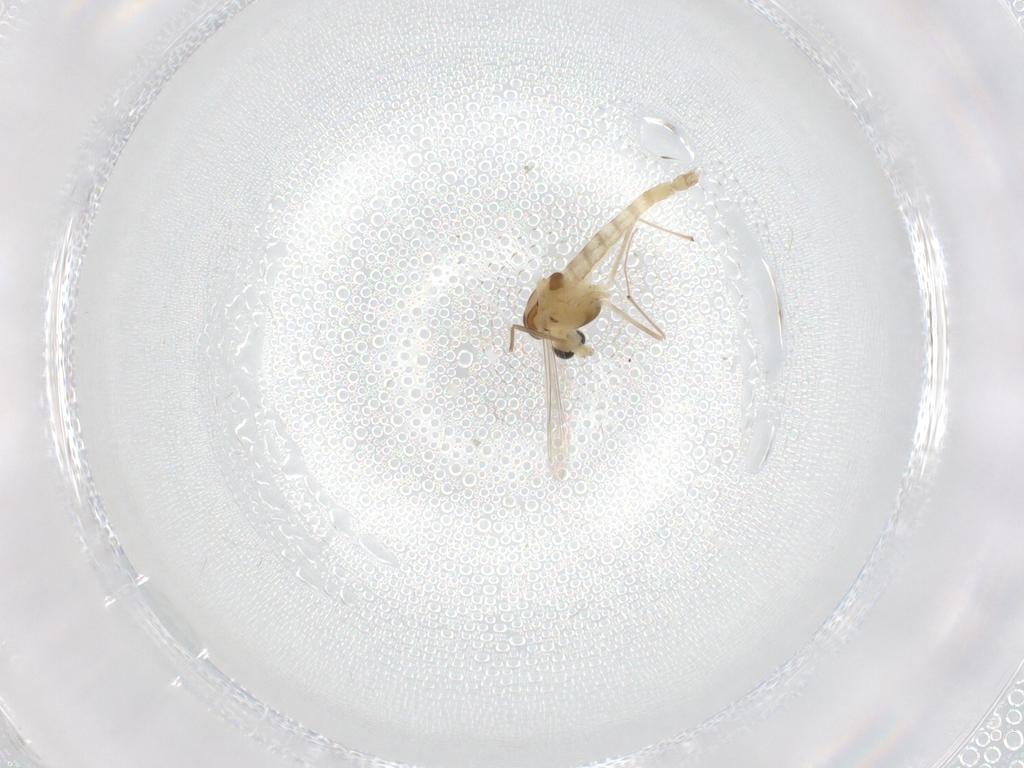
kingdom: Animalia
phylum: Arthropoda
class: Insecta
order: Diptera
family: Chironomidae
